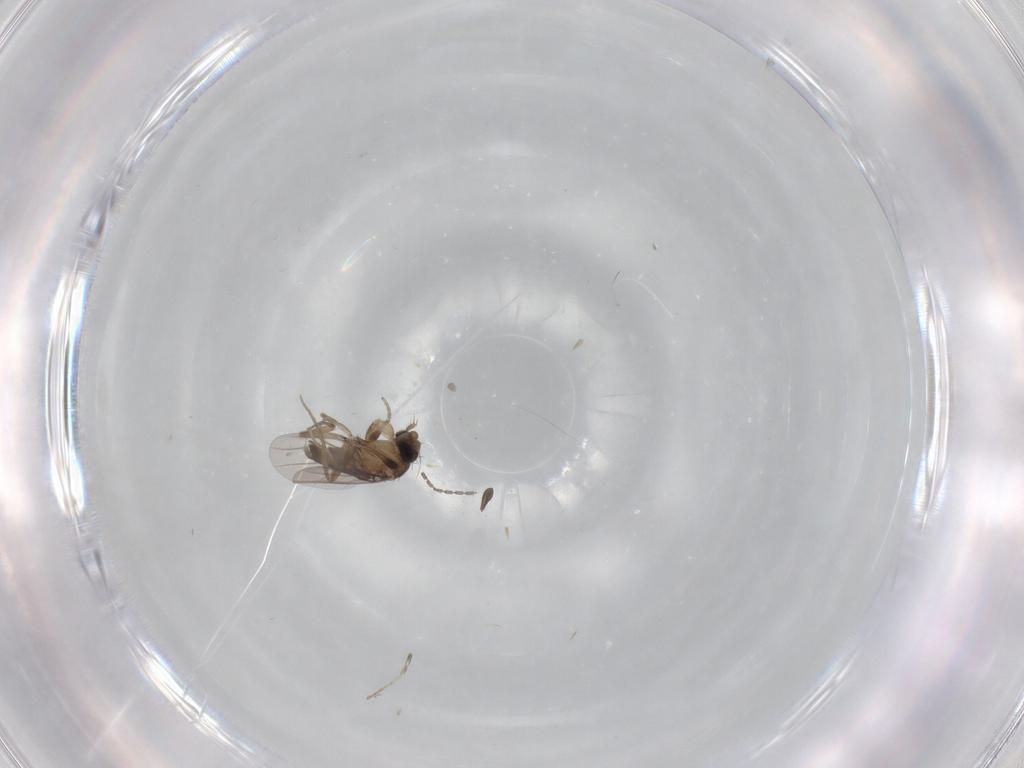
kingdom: Animalia
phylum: Arthropoda
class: Insecta
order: Diptera
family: Phoridae
